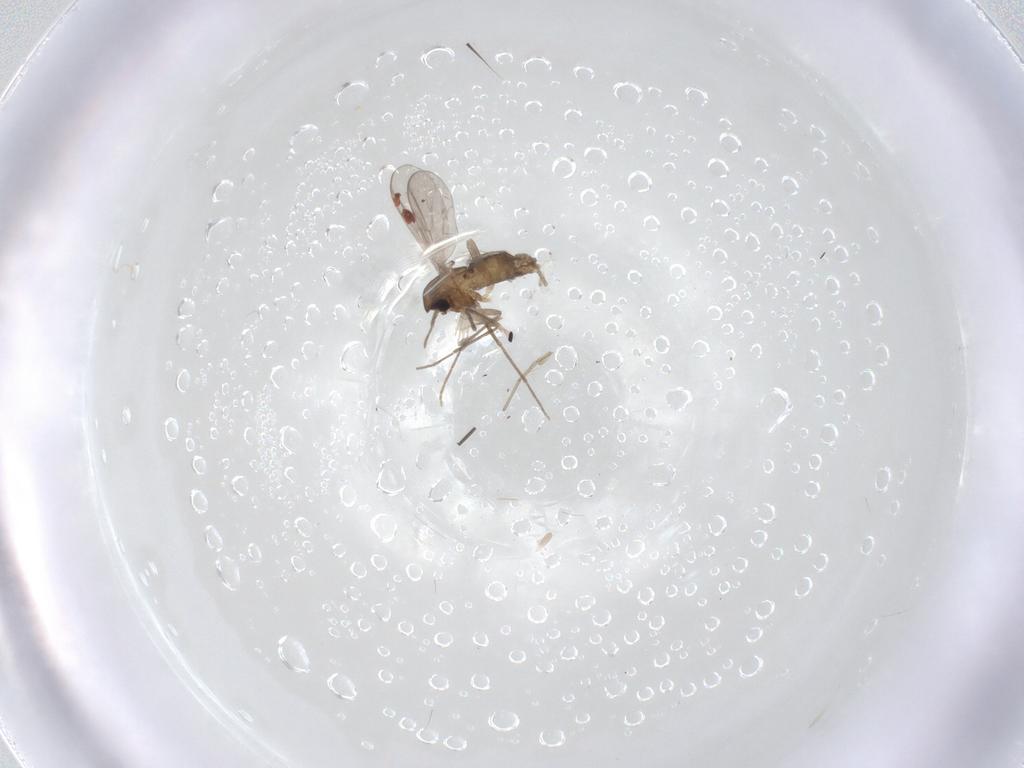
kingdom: Animalia
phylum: Arthropoda
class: Insecta
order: Diptera
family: Chironomidae
